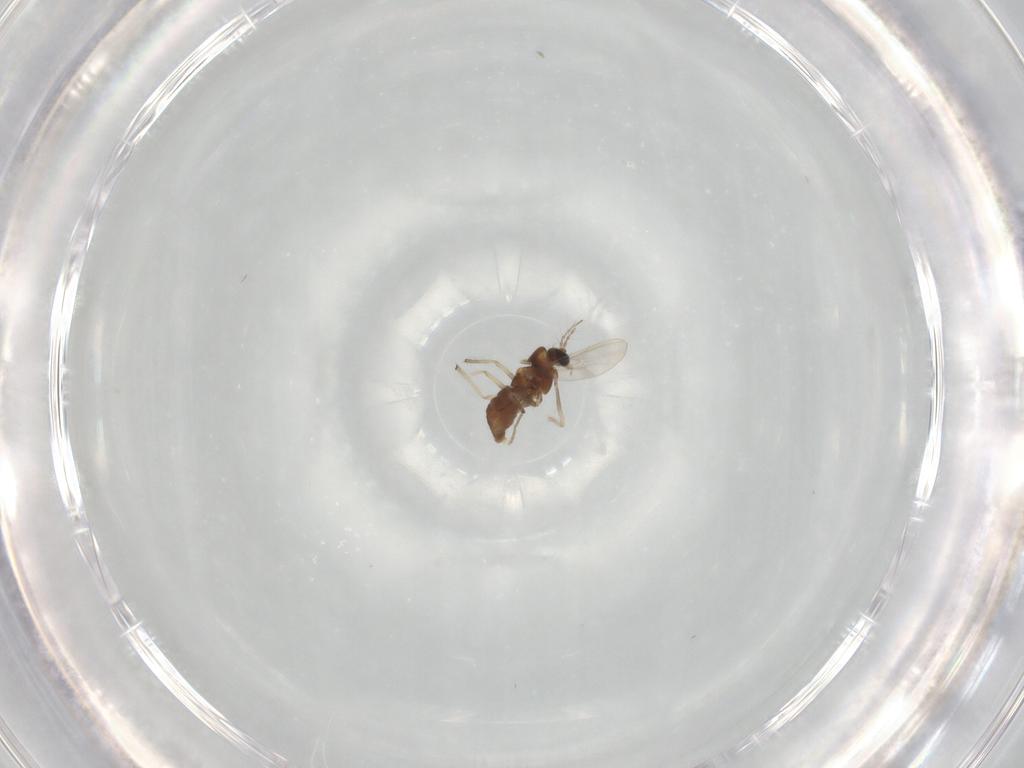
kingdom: Animalia
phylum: Arthropoda
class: Insecta
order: Diptera
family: Chironomidae
